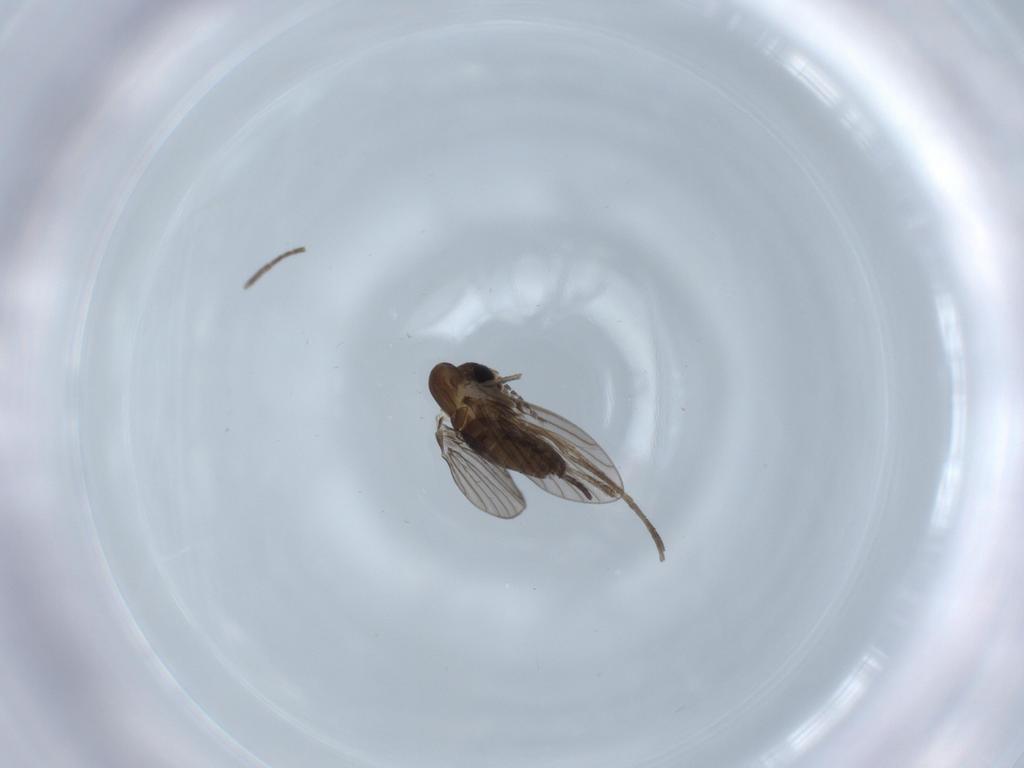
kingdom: Animalia
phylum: Arthropoda
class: Insecta
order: Diptera
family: Psychodidae
